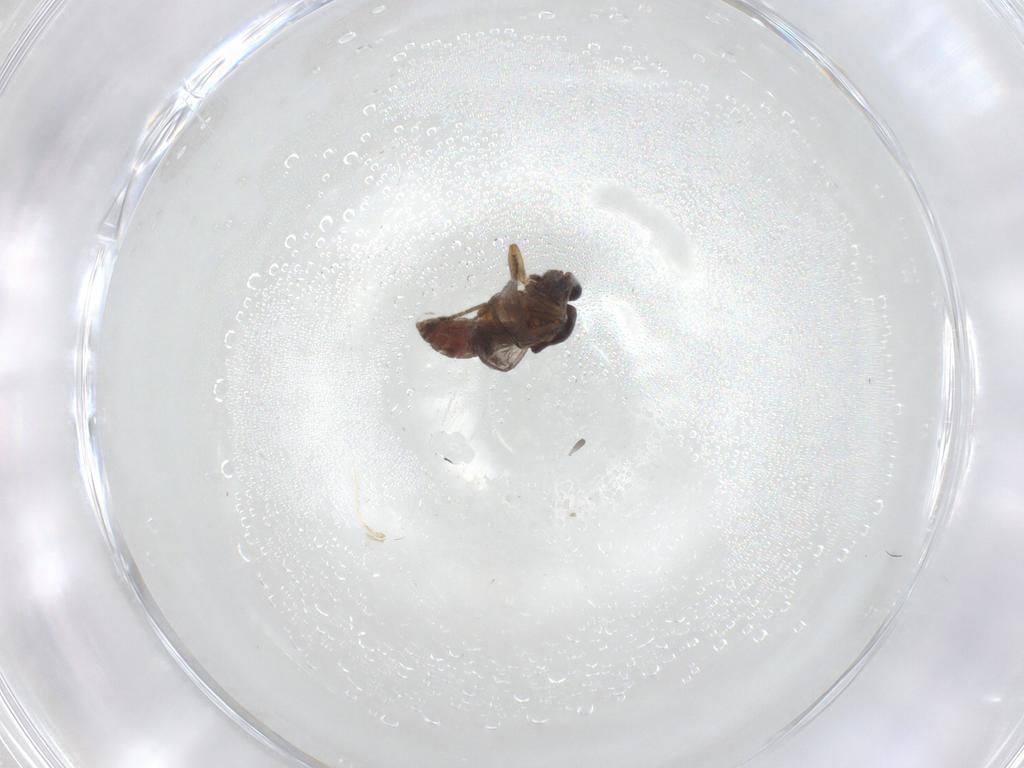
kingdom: Animalia
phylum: Arthropoda
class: Insecta
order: Diptera
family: Ceratopogonidae
